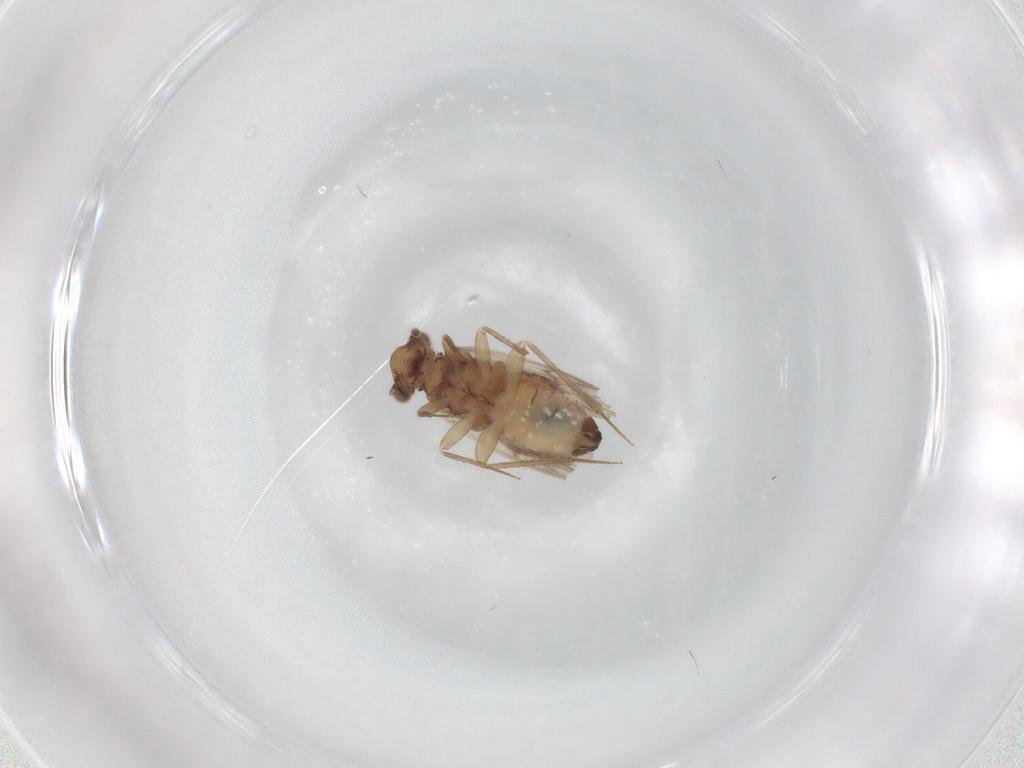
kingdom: Animalia
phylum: Arthropoda
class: Insecta
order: Psocodea
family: Lepidopsocidae
